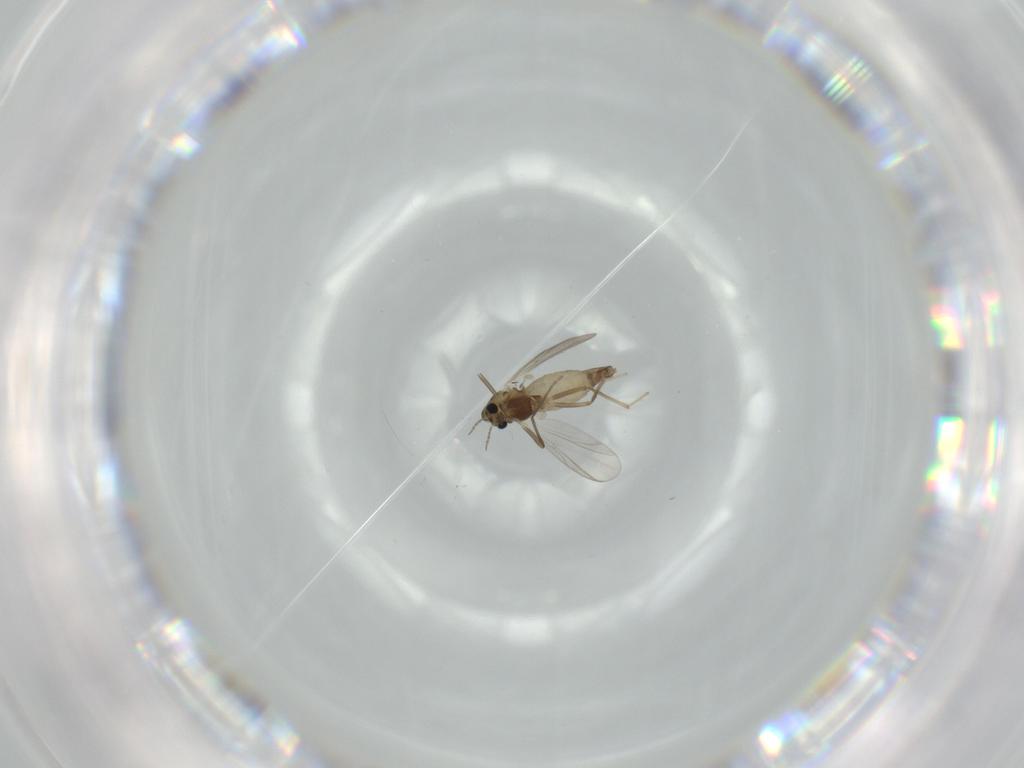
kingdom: Animalia
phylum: Arthropoda
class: Insecta
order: Diptera
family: Chironomidae
